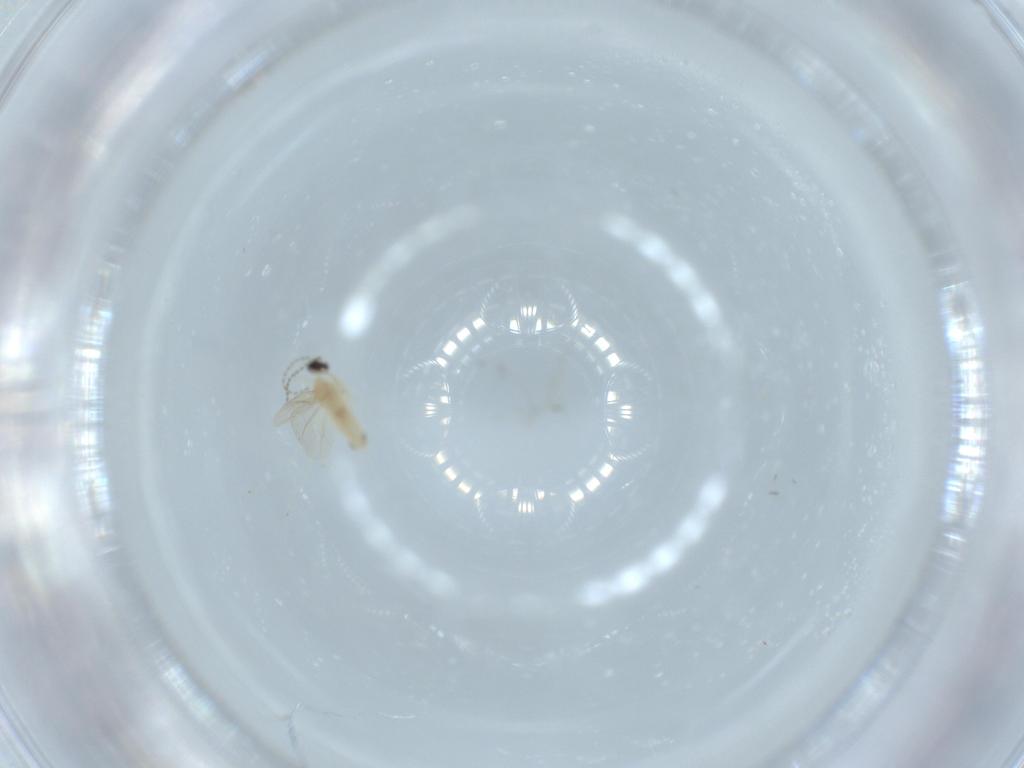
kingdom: Animalia
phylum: Arthropoda
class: Insecta
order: Diptera
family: Cecidomyiidae
